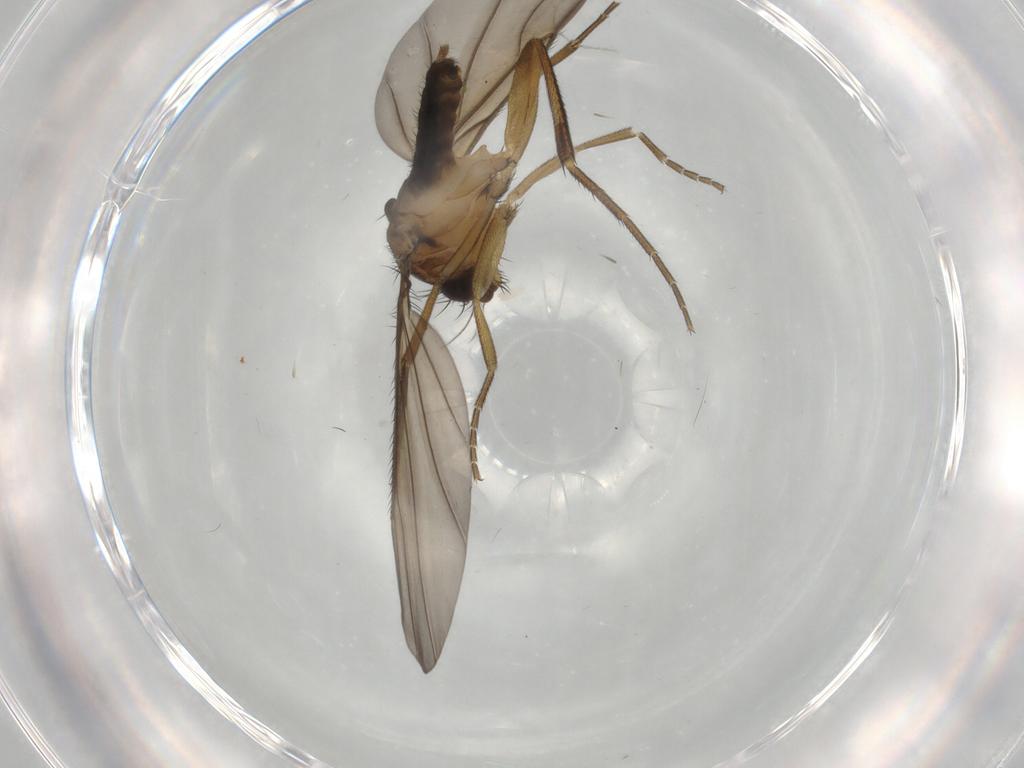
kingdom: Animalia
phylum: Arthropoda
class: Insecta
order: Diptera
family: Phoridae
